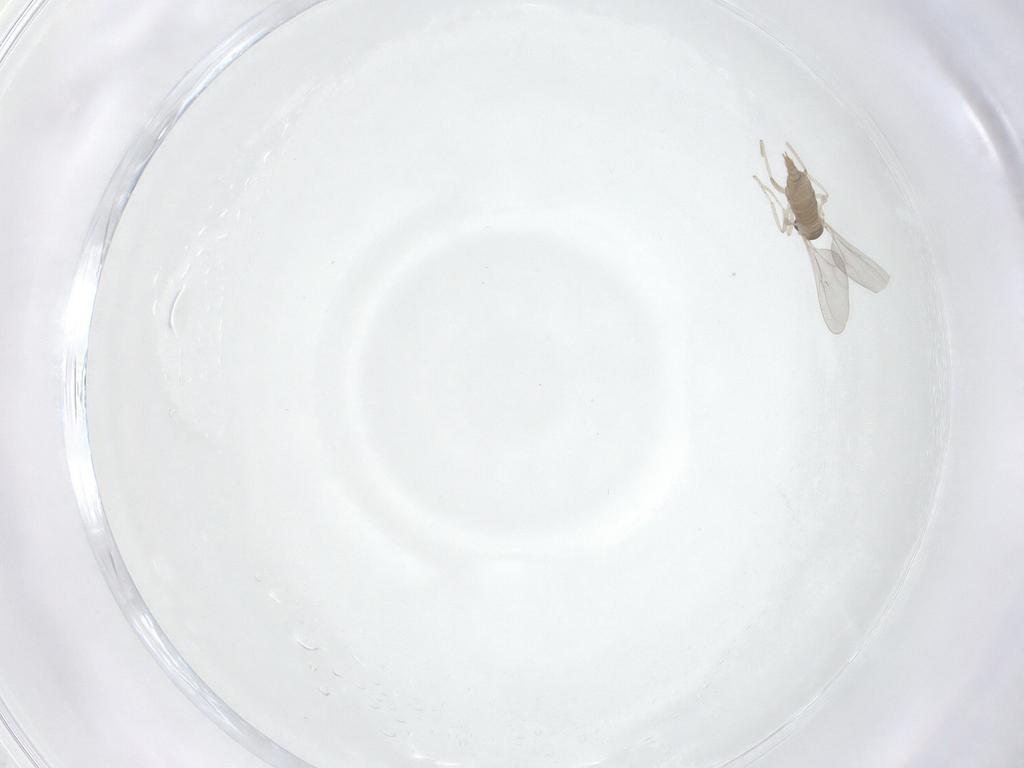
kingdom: Animalia
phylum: Arthropoda
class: Insecta
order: Diptera
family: Cecidomyiidae
